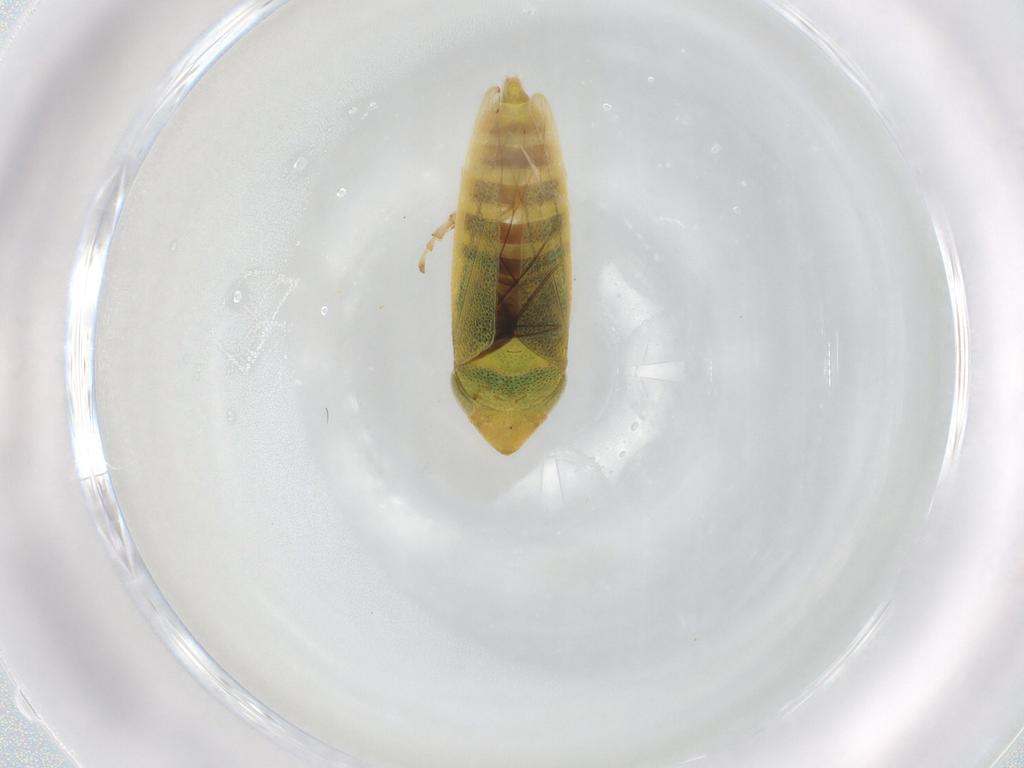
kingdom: Animalia
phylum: Arthropoda
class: Insecta
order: Hemiptera
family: Cicadellidae
